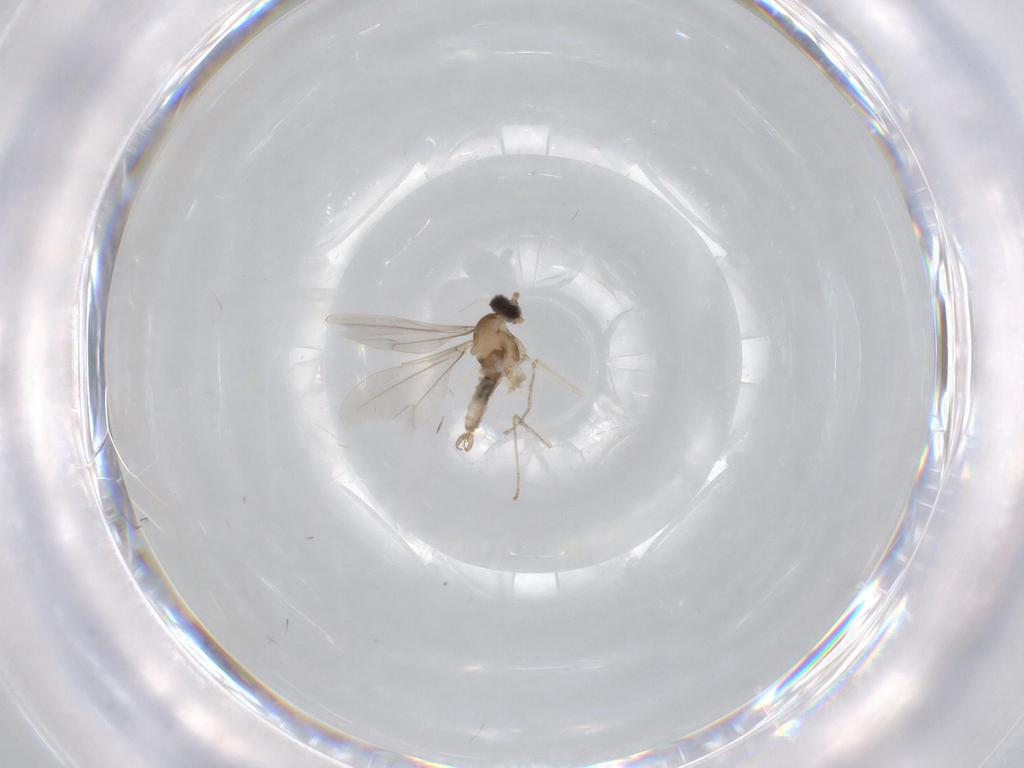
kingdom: Animalia
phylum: Arthropoda
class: Insecta
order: Diptera
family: Cecidomyiidae
